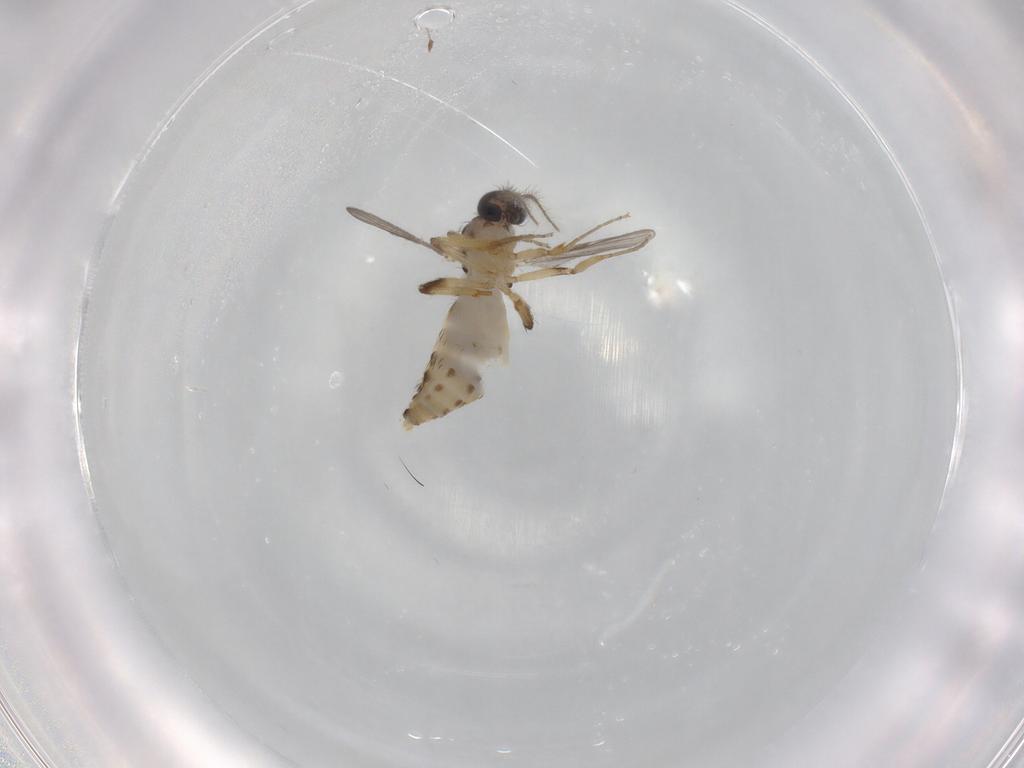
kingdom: Animalia
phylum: Arthropoda
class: Insecta
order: Diptera
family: Ceratopogonidae
